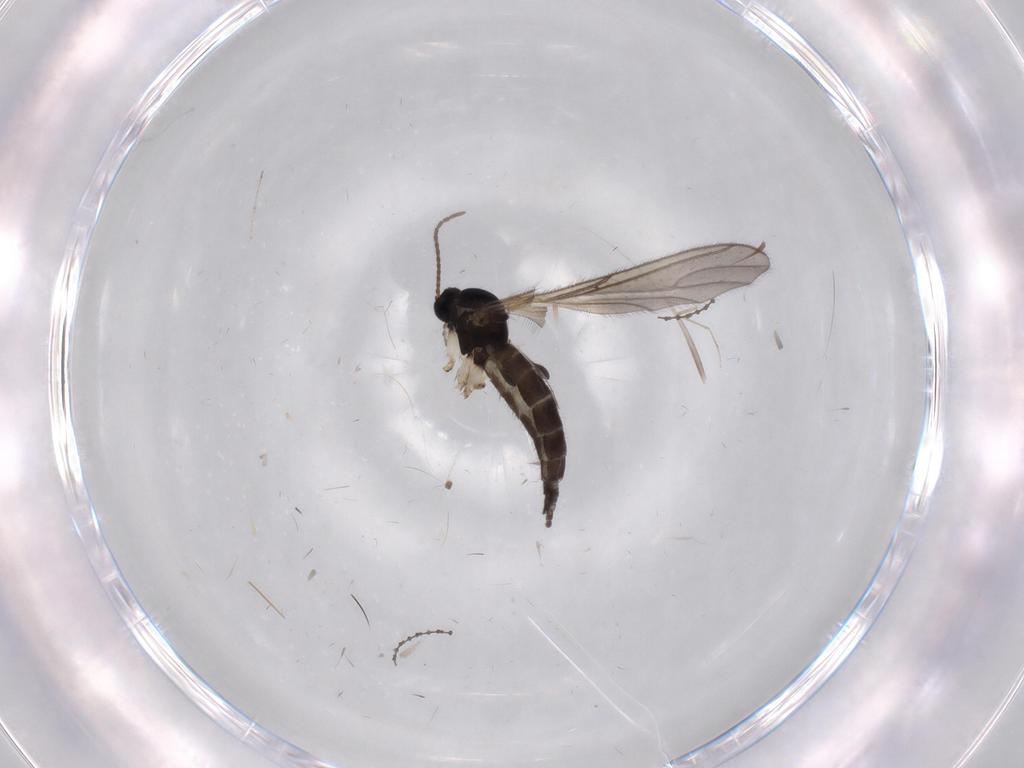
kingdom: Animalia
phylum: Arthropoda
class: Insecta
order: Diptera
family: Sciaridae
